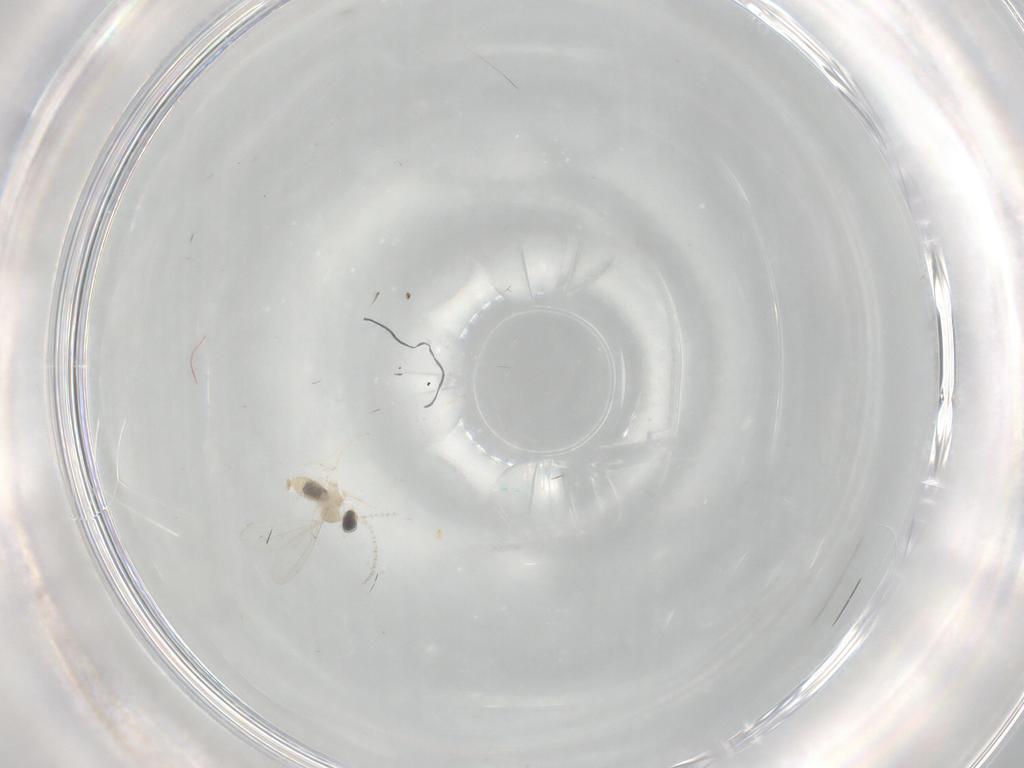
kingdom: Animalia
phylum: Arthropoda
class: Insecta
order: Diptera
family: Cecidomyiidae
